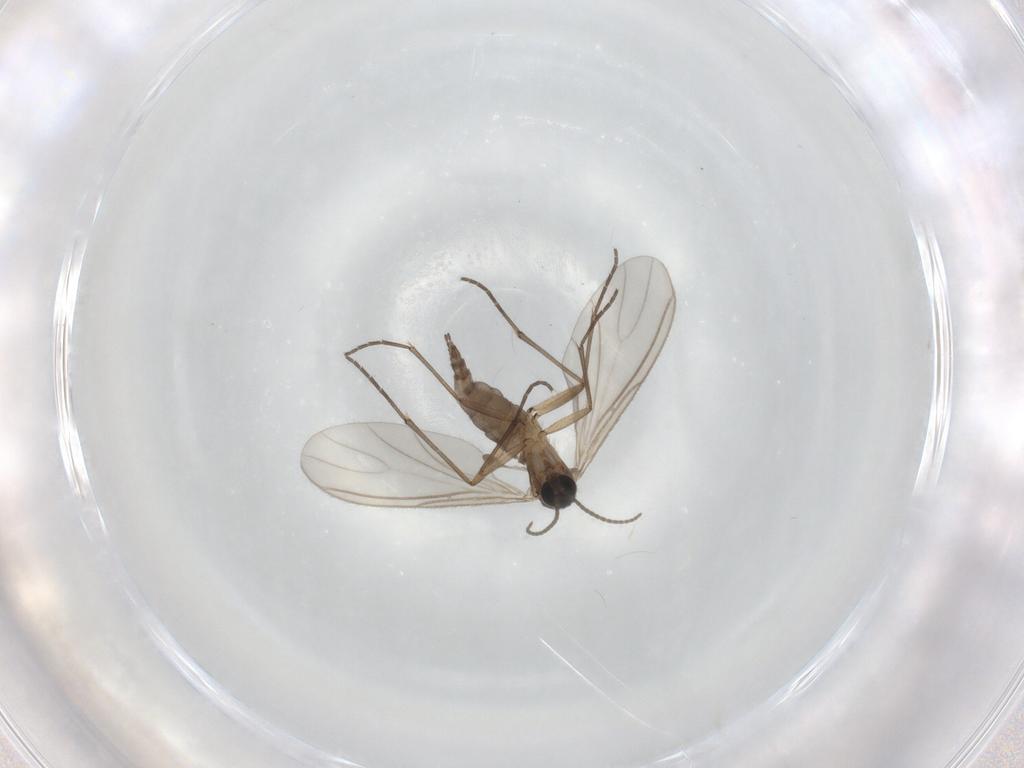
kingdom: Animalia
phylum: Arthropoda
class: Insecta
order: Diptera
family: Sciaridae
